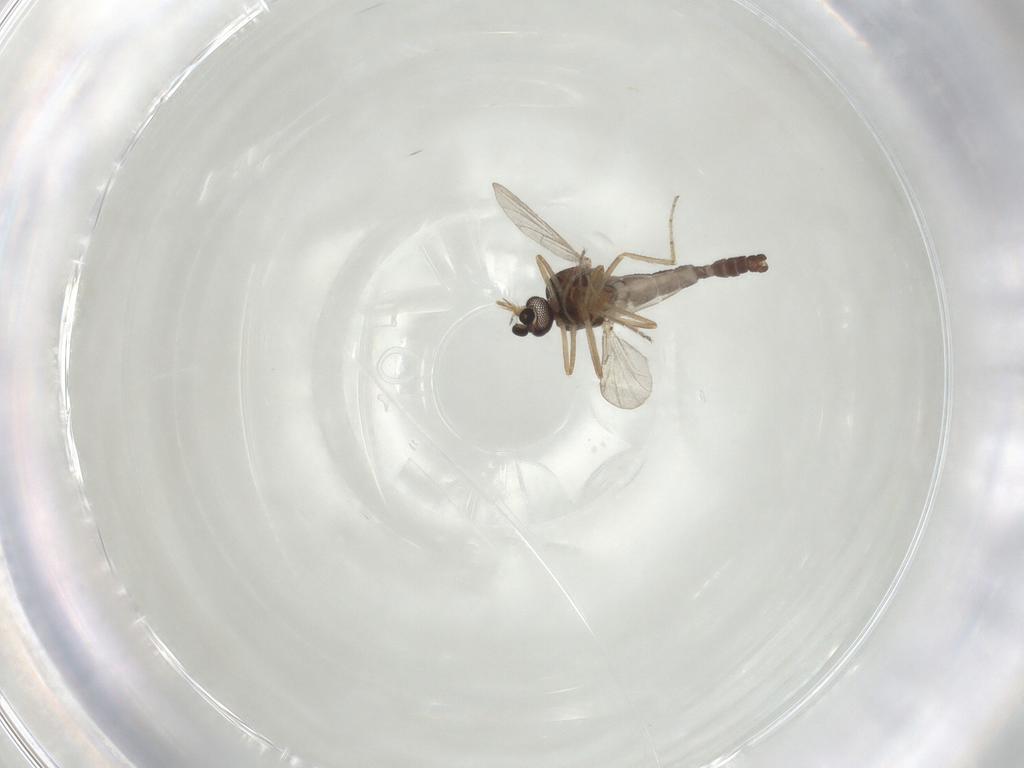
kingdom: Animalia
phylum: Arthropoda
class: Insecta
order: Diptera
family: Ceratopogonidae
